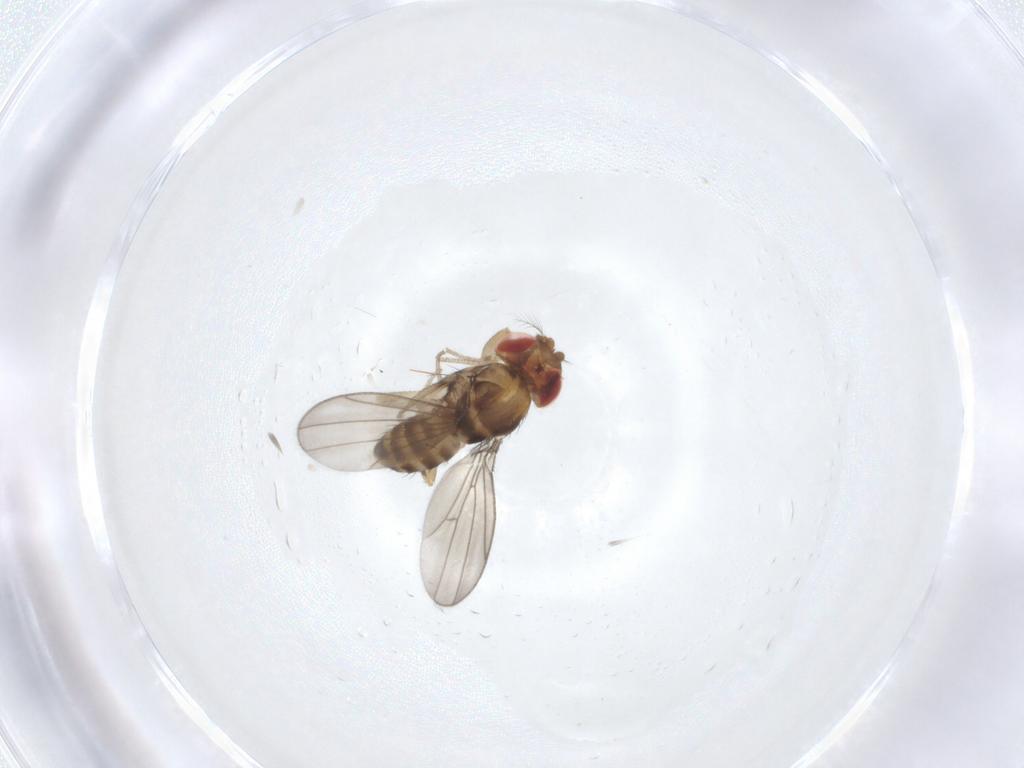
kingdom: Animalia
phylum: Arthropoda
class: Insecta
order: Diptera
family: Drosophilidae
